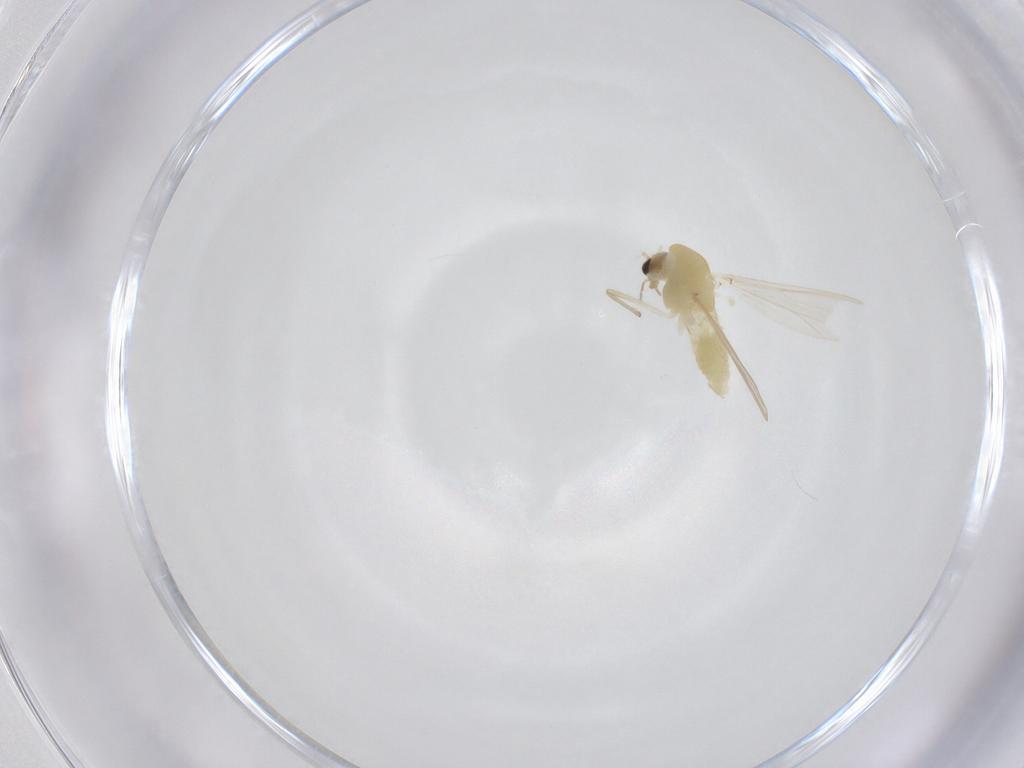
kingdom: Animalia
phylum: Arthropoda
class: Insecta
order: Diptera
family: Chironomidae
